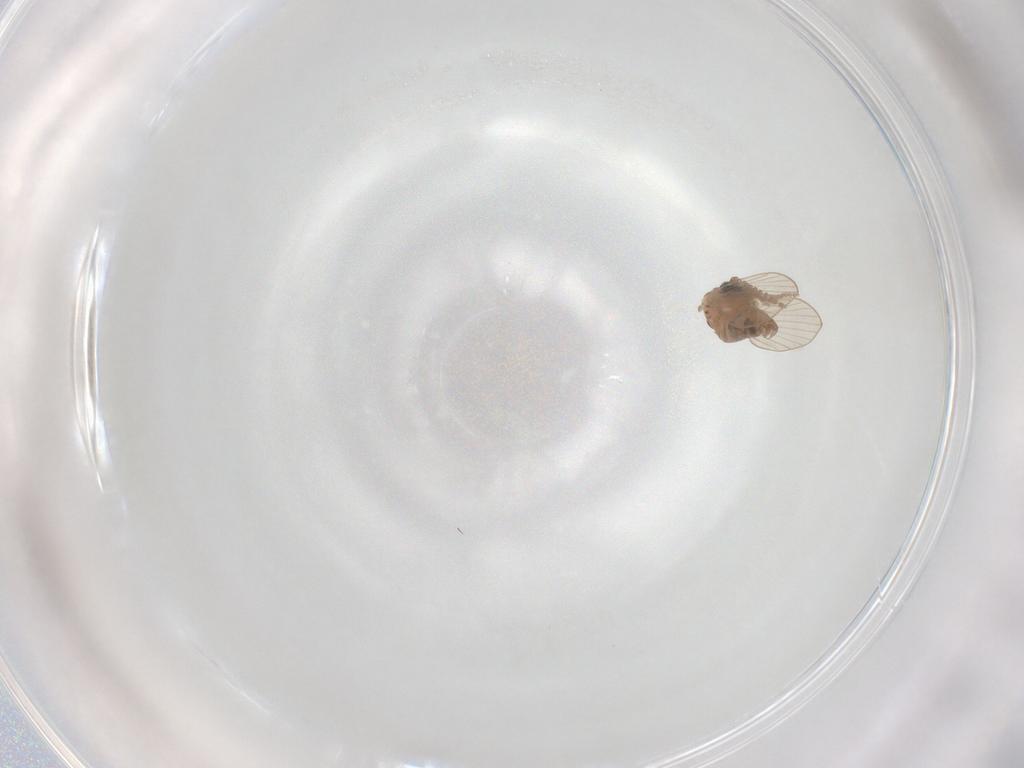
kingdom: Animalia
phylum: Arthropoda
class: Insecta
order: Diptera
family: Psychodidae
